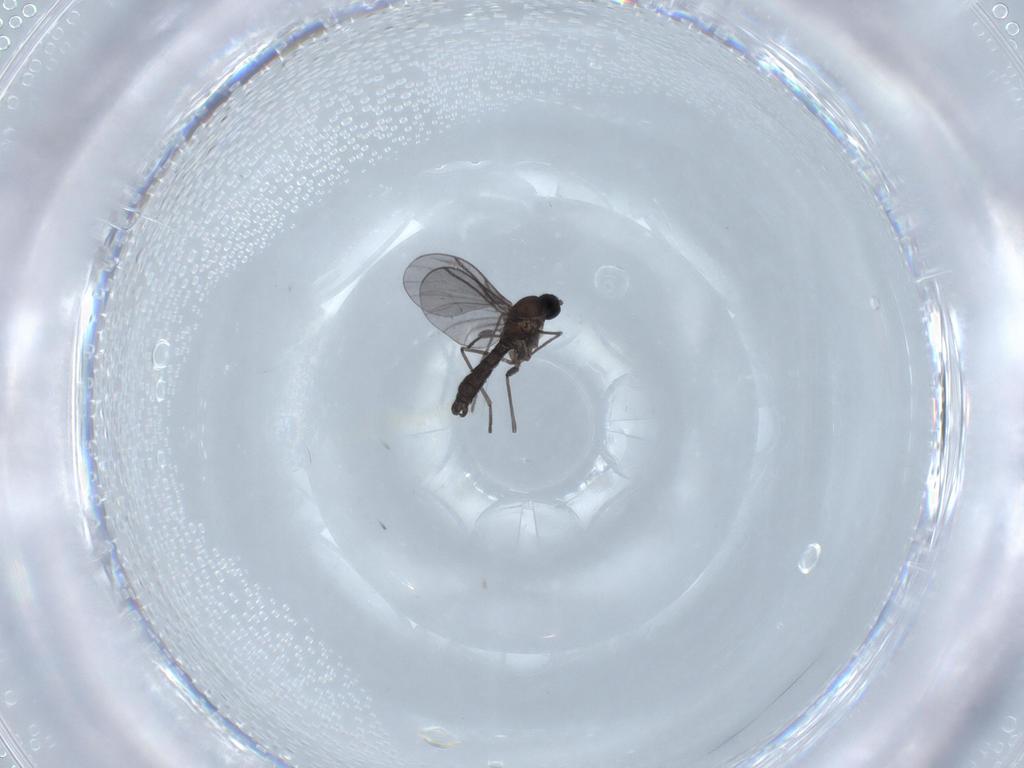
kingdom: Animalia
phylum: Arthropoda
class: Insecta
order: Diptera
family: Sciaridae
